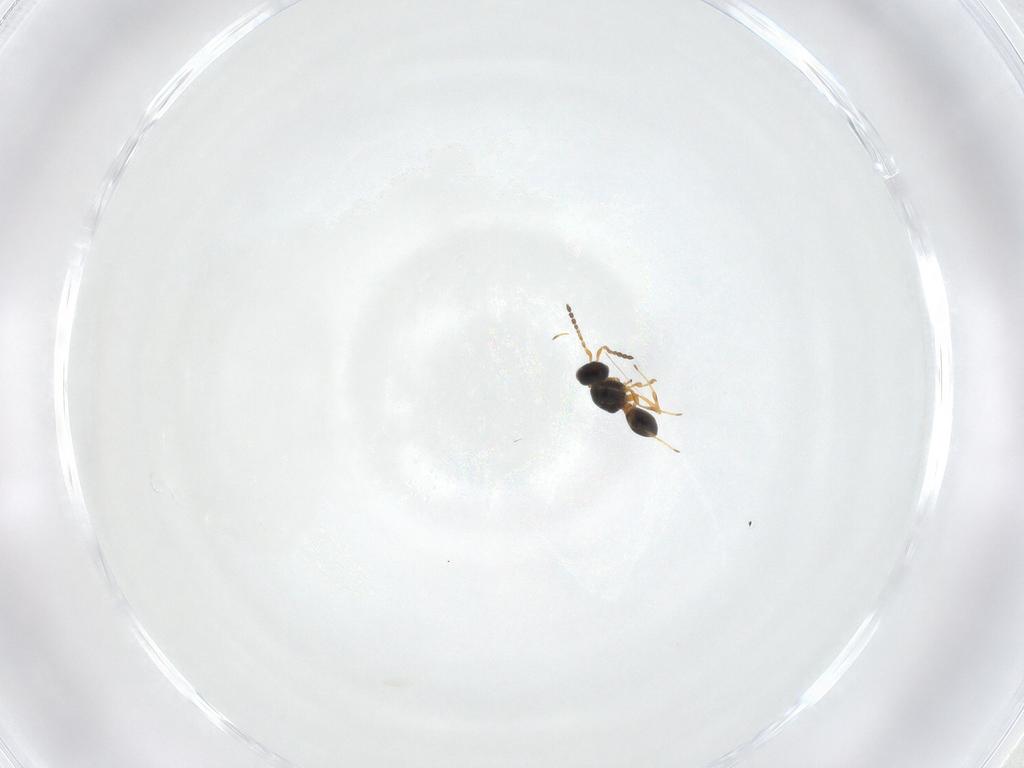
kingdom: Animalia
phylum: Arthropoda
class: Insecta
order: Hymenoptera
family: Platygastridae
